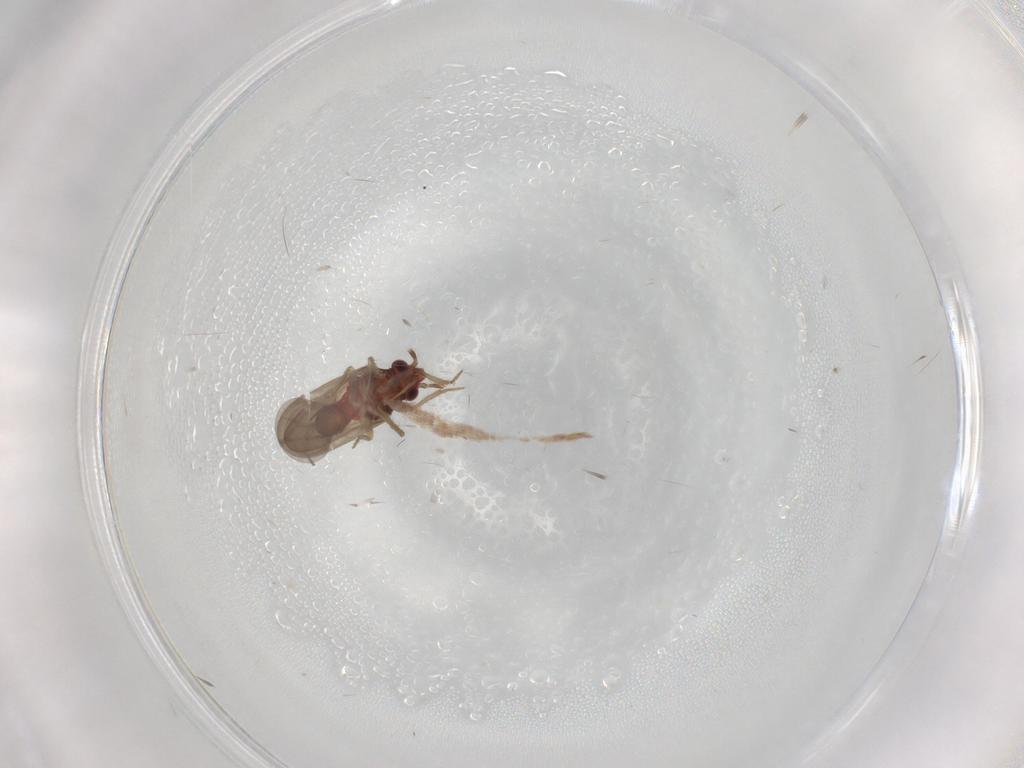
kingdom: Animalia
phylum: Arthropoda
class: Insecta
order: Hemiptera
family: Ceratocombidae
